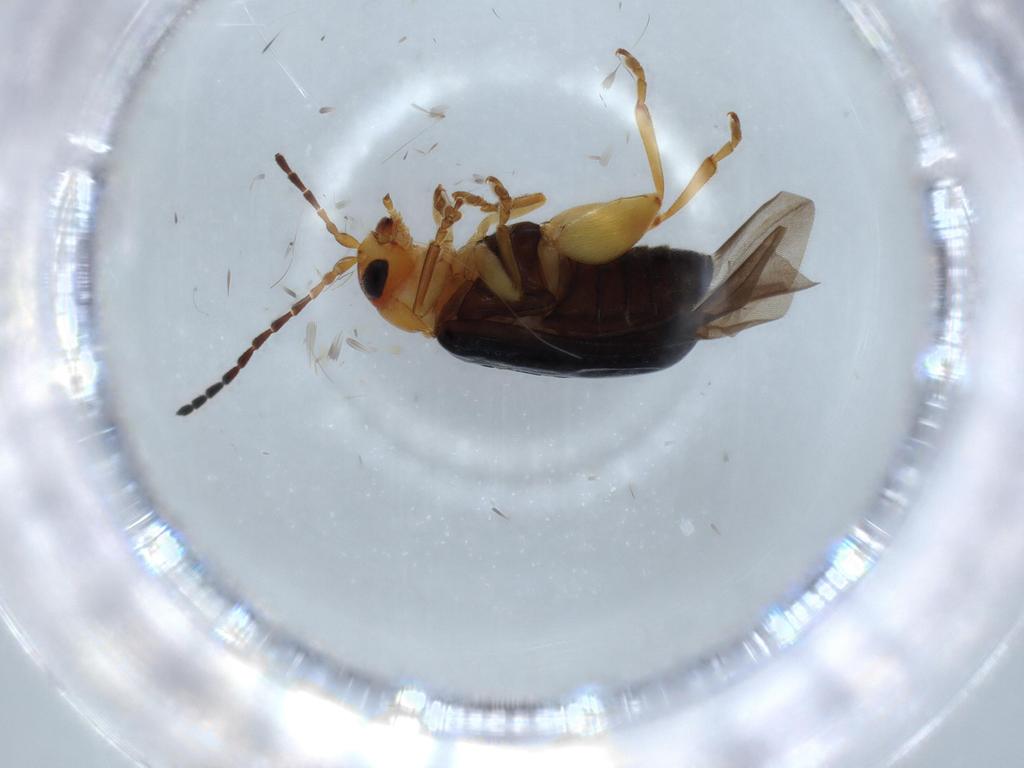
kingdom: Animalia
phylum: Arthropoda
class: Insecta
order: Coleoptera
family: Chrysomelidae
